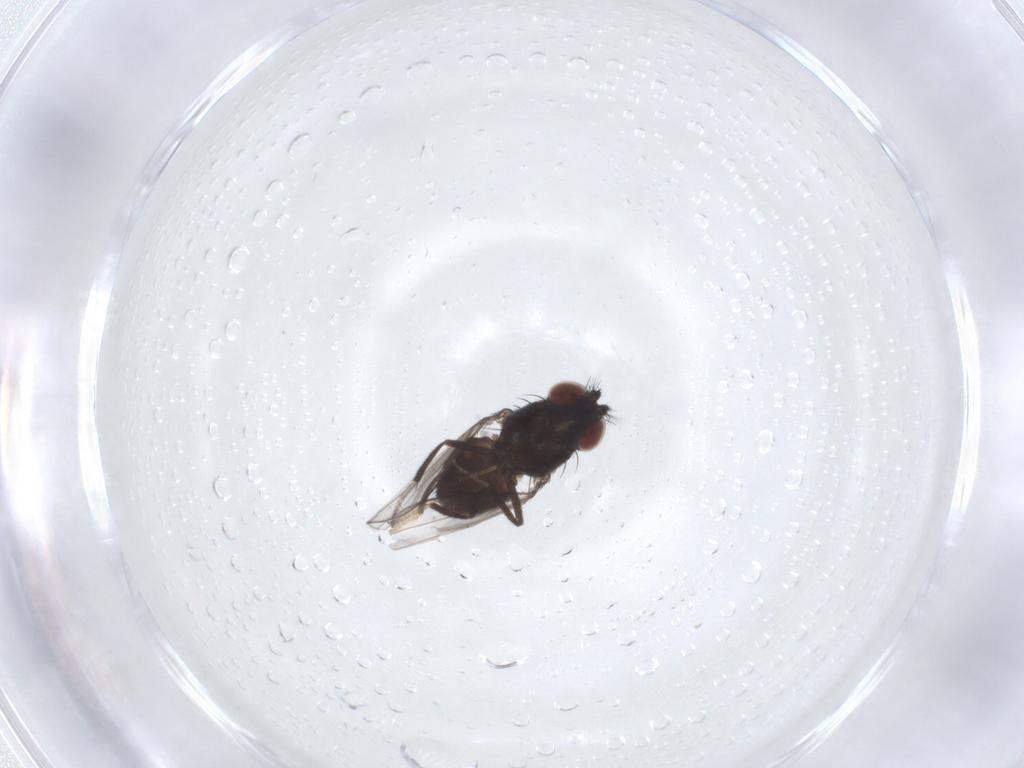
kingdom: Animalia
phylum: Arthropoda
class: Insecta
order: Diptera
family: Ephydridae
